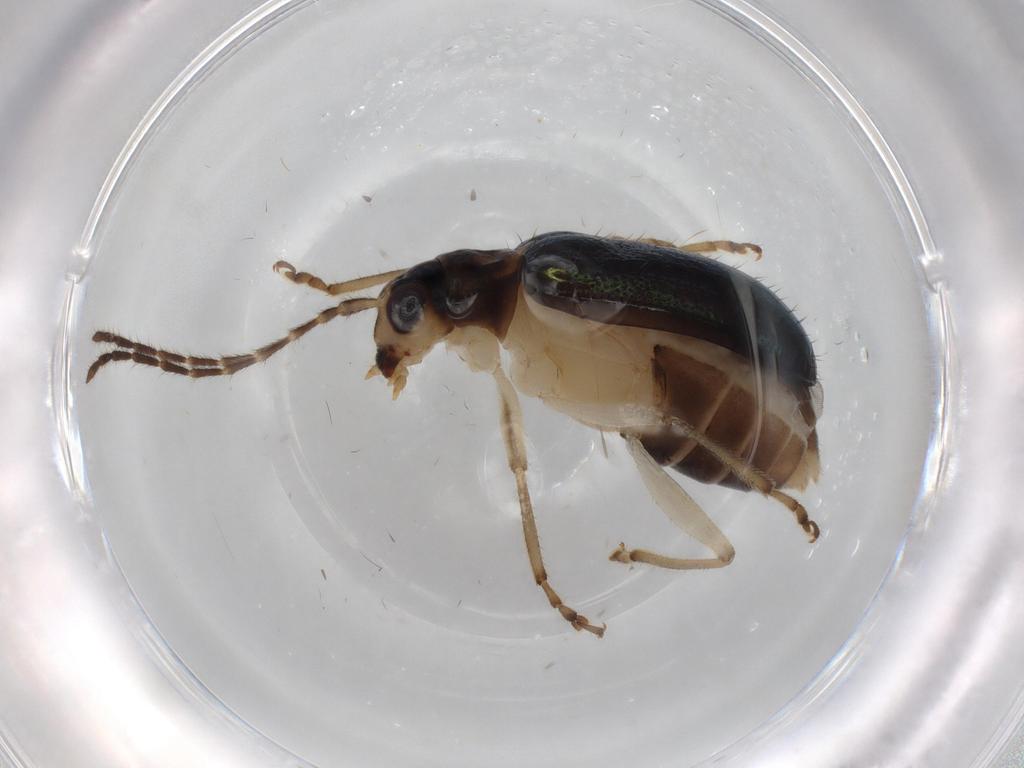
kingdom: Animalia
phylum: Arthropoda
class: Insecta
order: Coleoptera
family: Chrysomelidae
